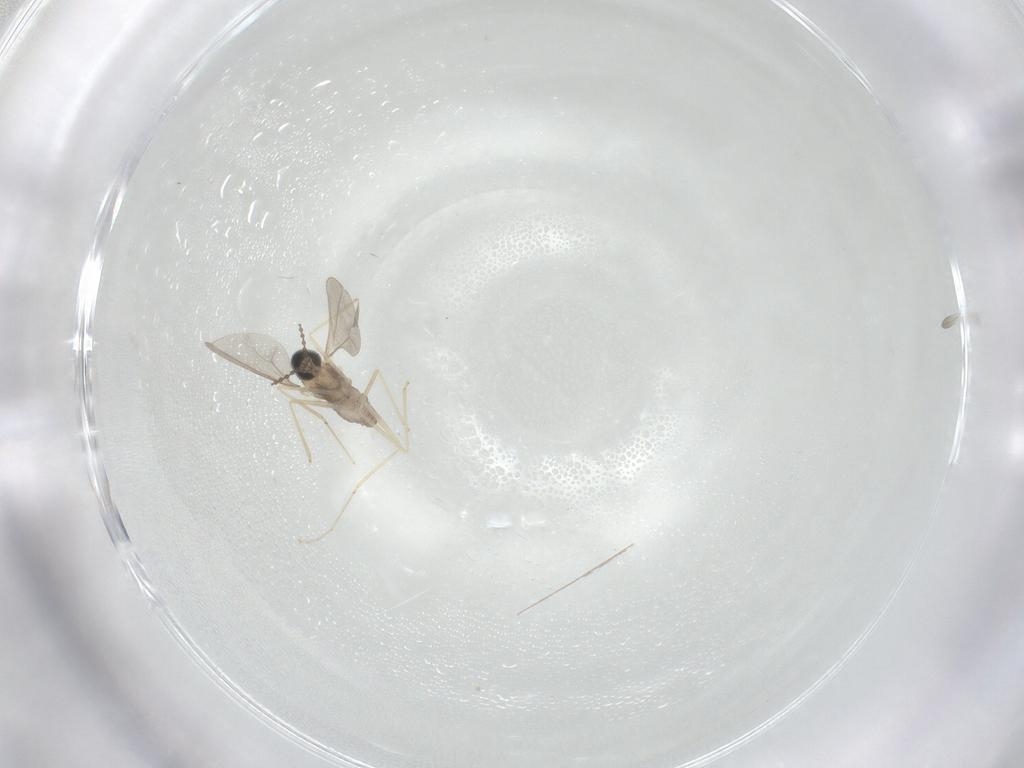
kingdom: Animalia
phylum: Arthropoda
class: Insecta
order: Diptera
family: Cecidomyiidae
